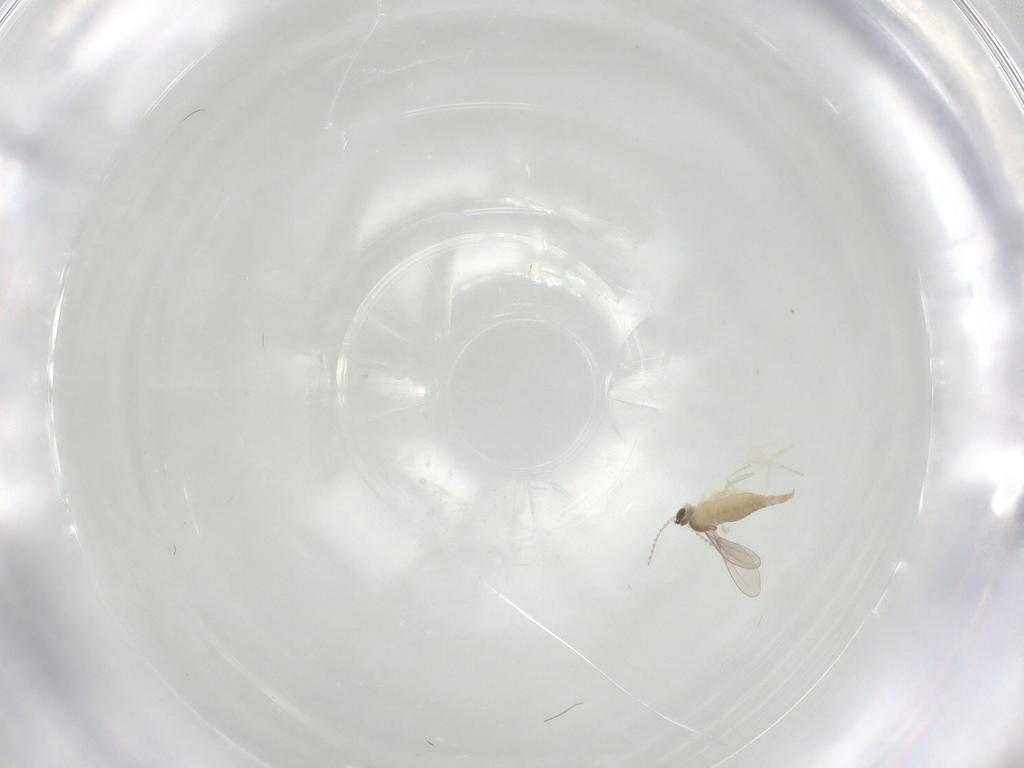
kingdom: Animalia
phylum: Arthropoda
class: Insecta
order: Diptera
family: Cecidomyiidae
